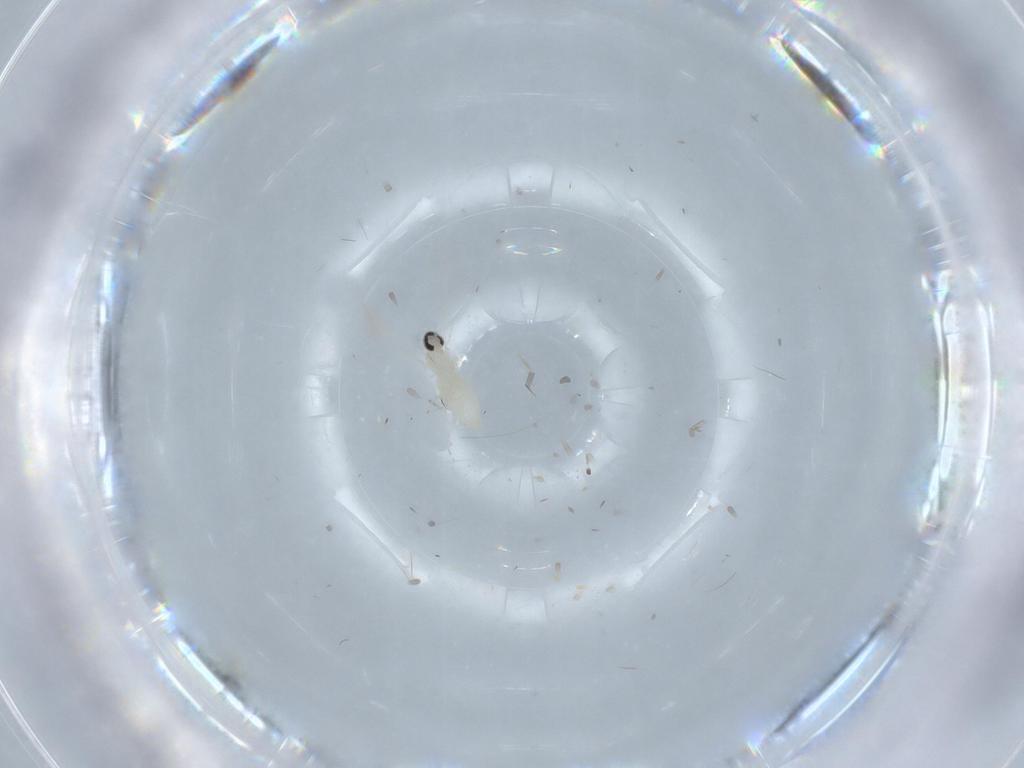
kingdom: Animalia
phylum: Arthropoda
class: Insecta
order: Diptera
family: Cecidomyiidae
